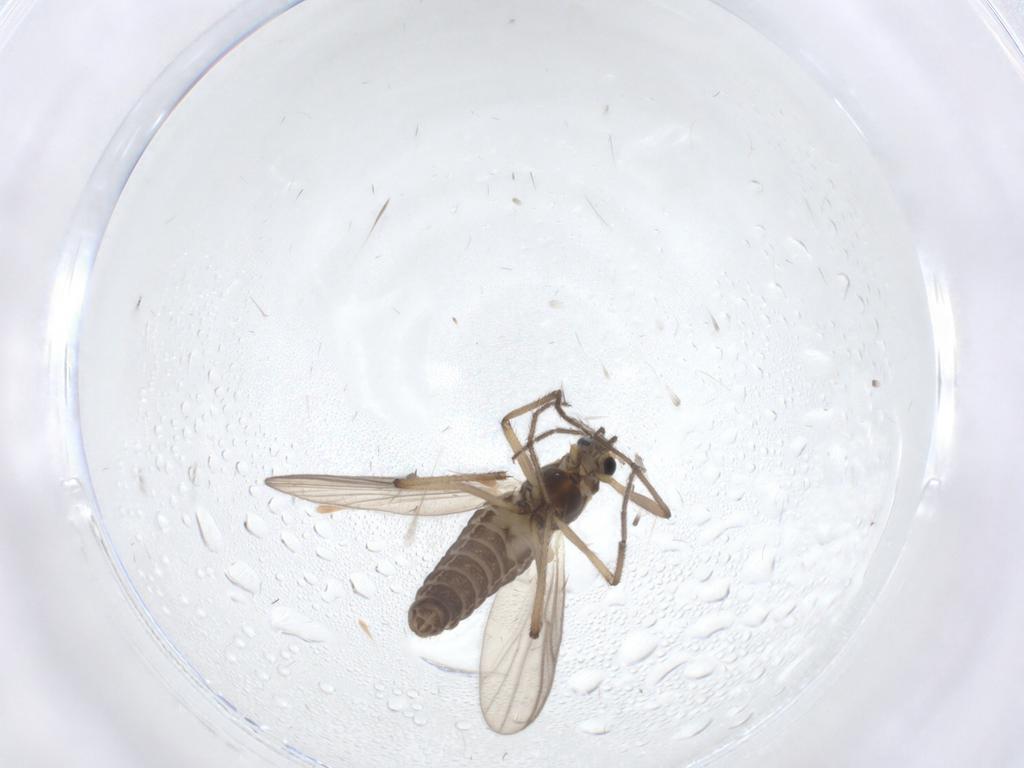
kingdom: Animalia
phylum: Arthropoda
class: Insecta
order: Diptera
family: Chironomidae
